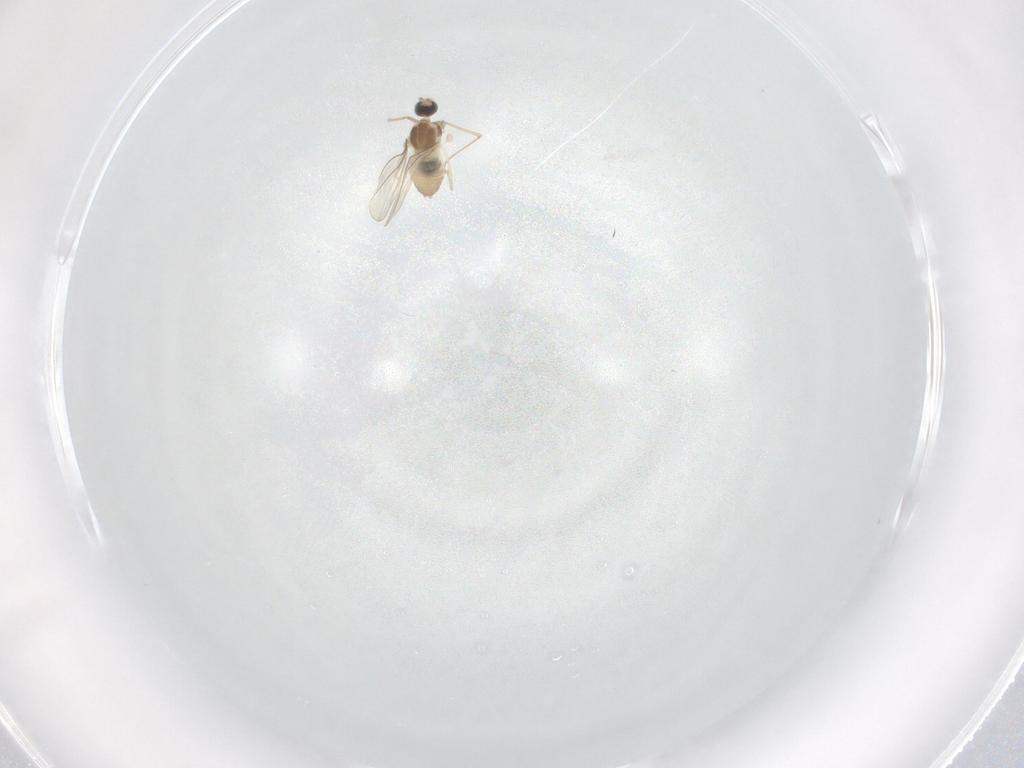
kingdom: Animalia
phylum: Arthropoda
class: Insecta
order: Diptera
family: Cecidomyiidae
